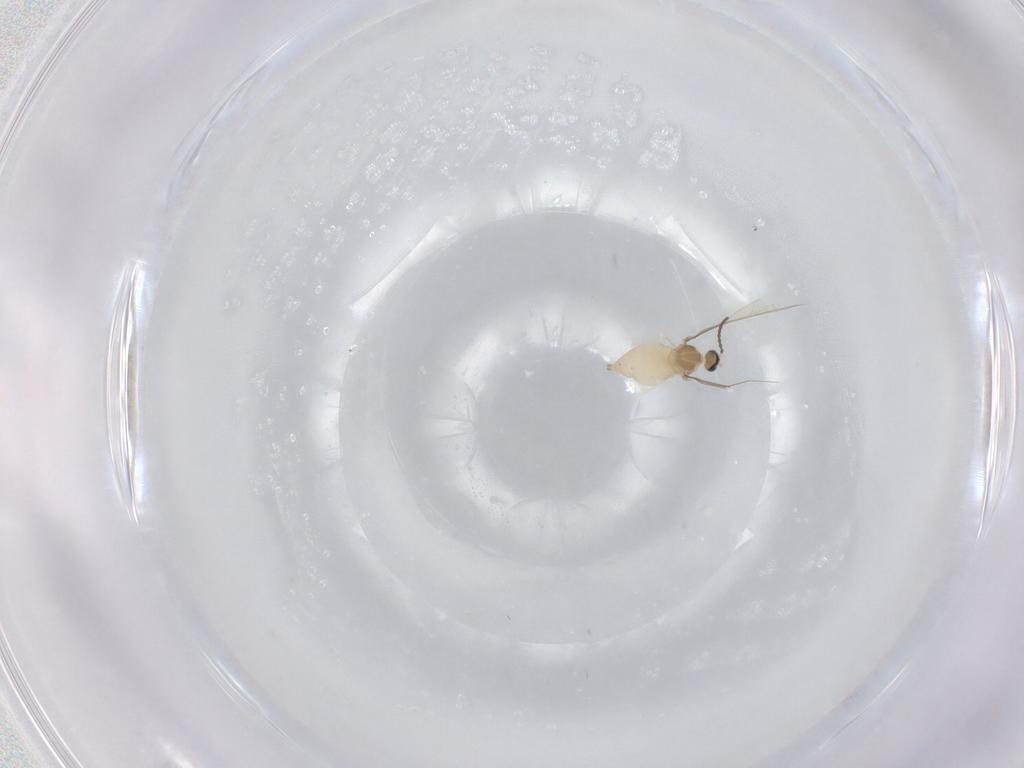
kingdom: Animalia
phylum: Arthropoda
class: Insecta
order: Diptera
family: Cecidomyiidae
